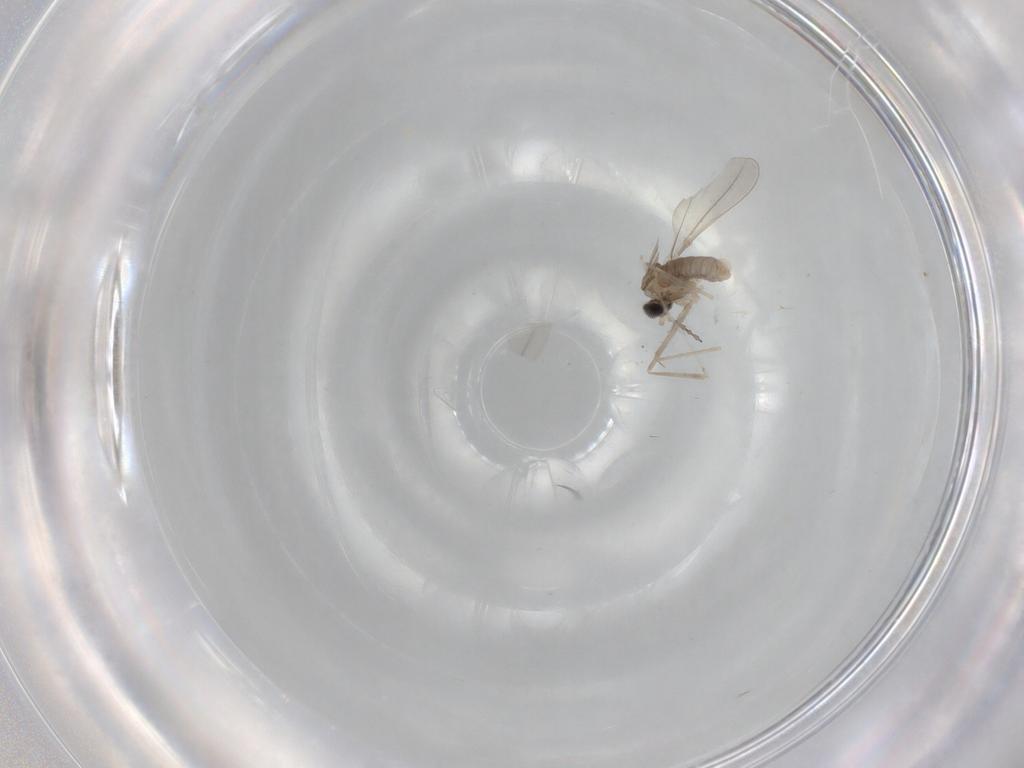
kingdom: Animalia
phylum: Arthropoda
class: Insecta
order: Diptera
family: Cecidomyiidae
